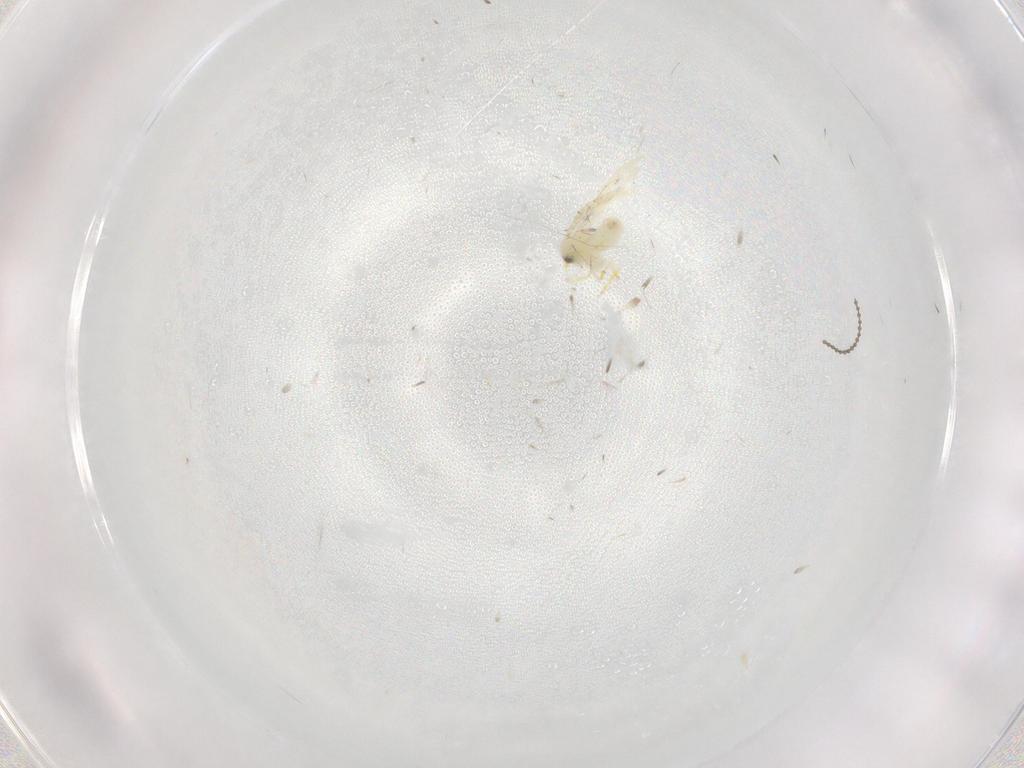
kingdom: Animalia
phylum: Arthropoda
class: Insecta
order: Hemiptera
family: Aleyrodidae
